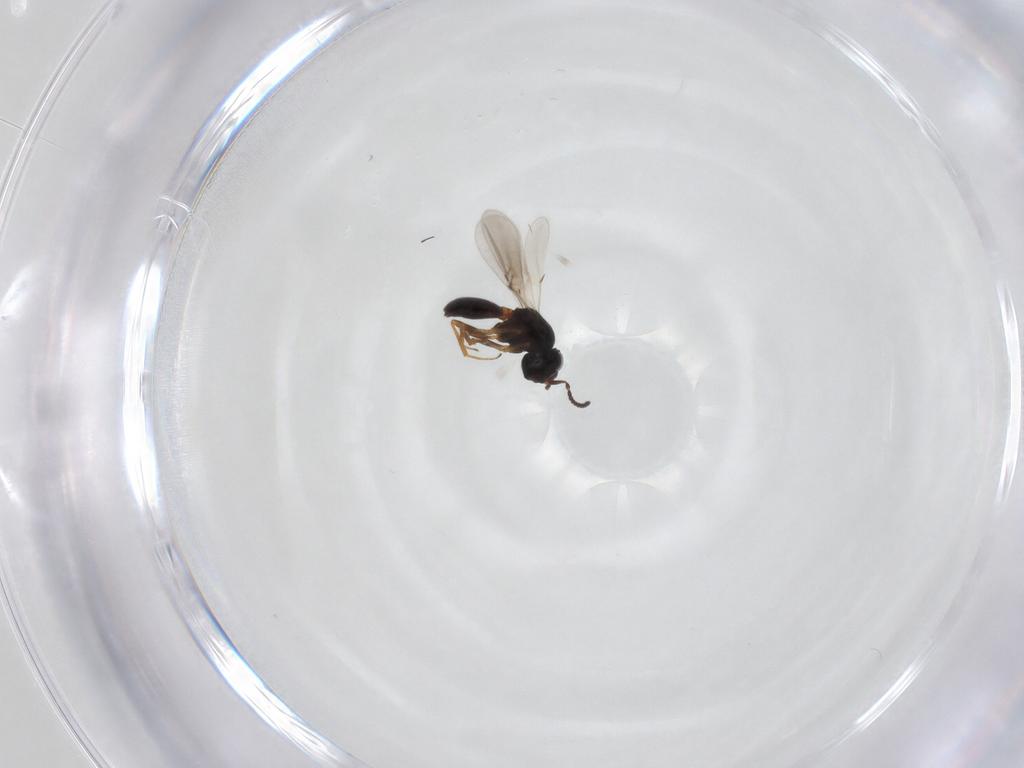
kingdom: Animalia
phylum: Arthropoda
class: Insecta
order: Hymenoptera
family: Scelionidae
